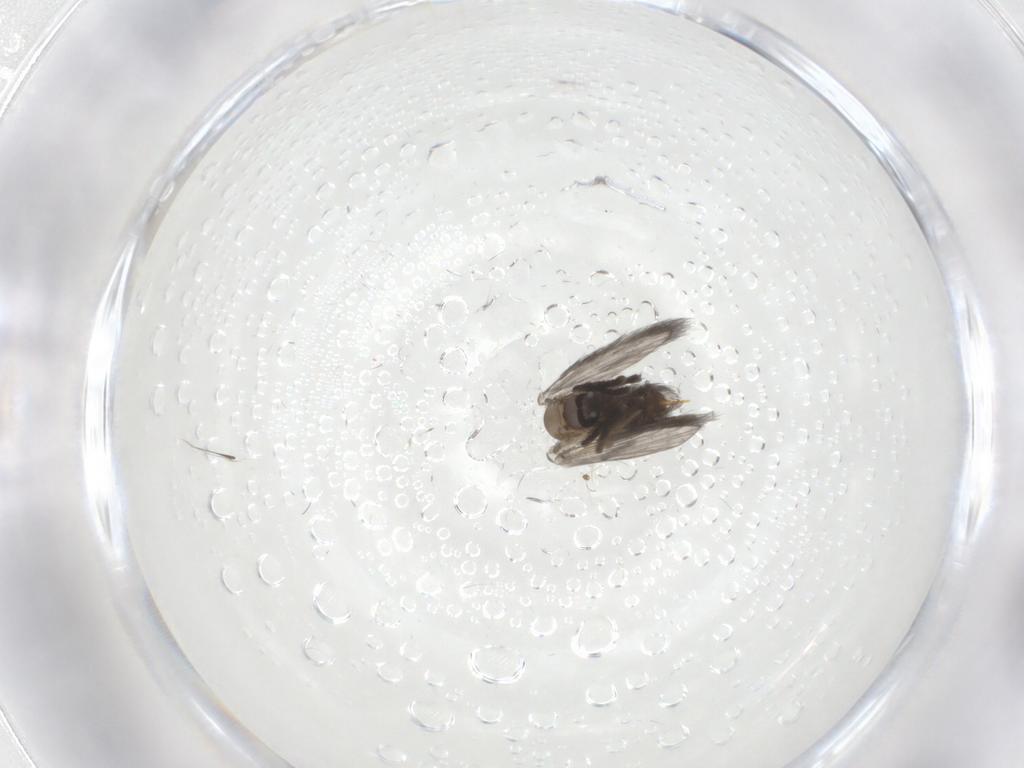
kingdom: Animalia
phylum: Arthropoda
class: Insecta
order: Diptera
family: Psychodidae
